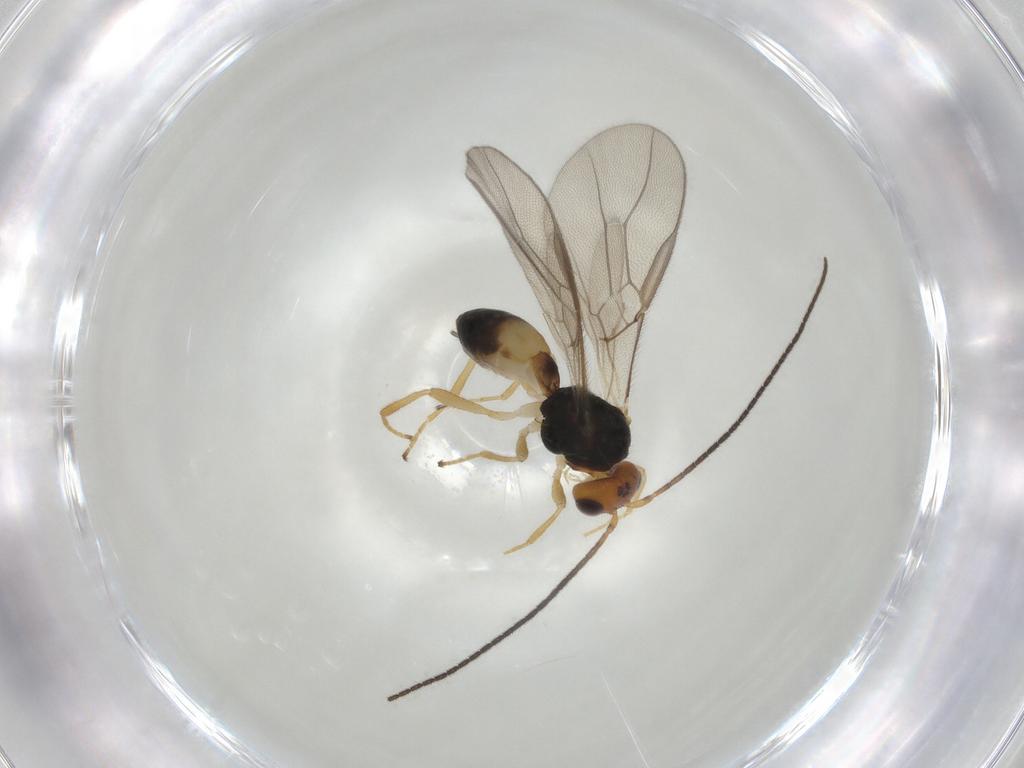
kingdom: Animalia
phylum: Arthropoda
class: Insecta
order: Hymenoptera
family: Braconidae
